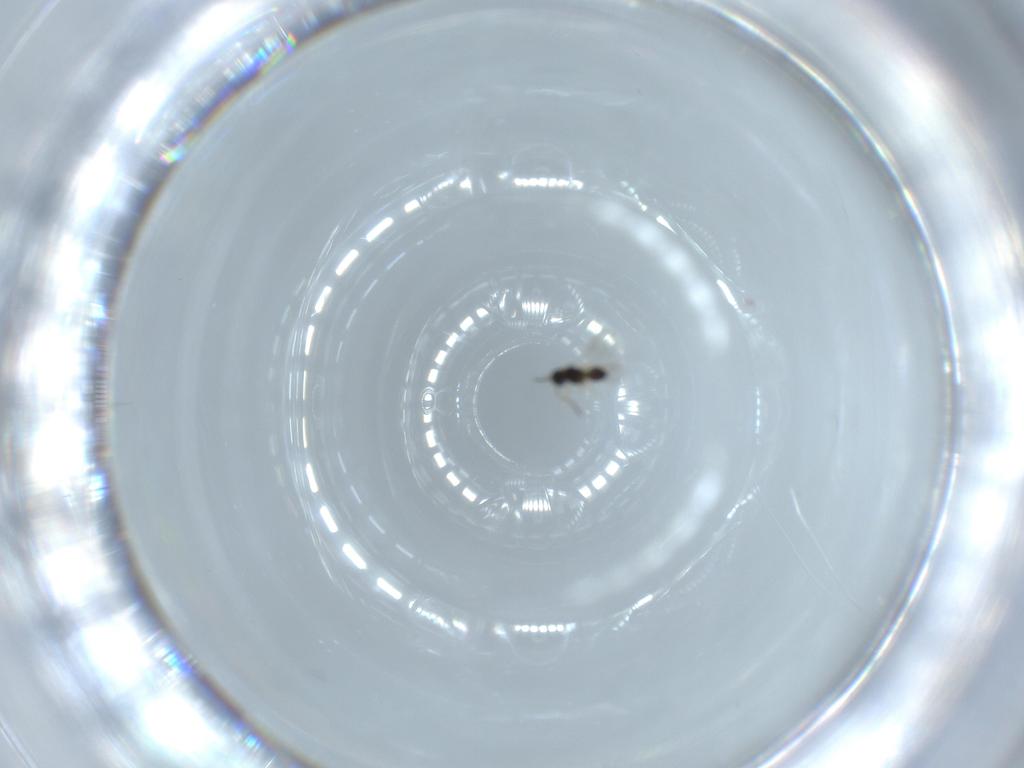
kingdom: Animalia
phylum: Arthropoda
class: Insecta
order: Hymenoptera
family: Scelionidae
